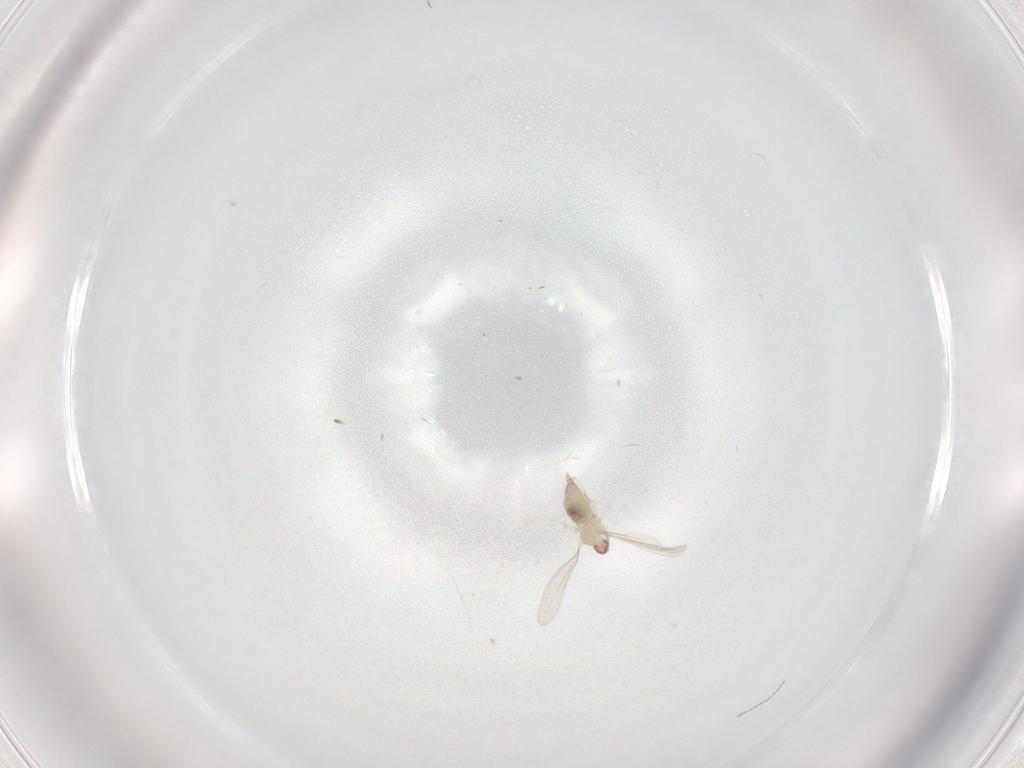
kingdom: Animalia
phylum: Arthropoda
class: Insecta
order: Diptera
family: Cecidomyiidae
